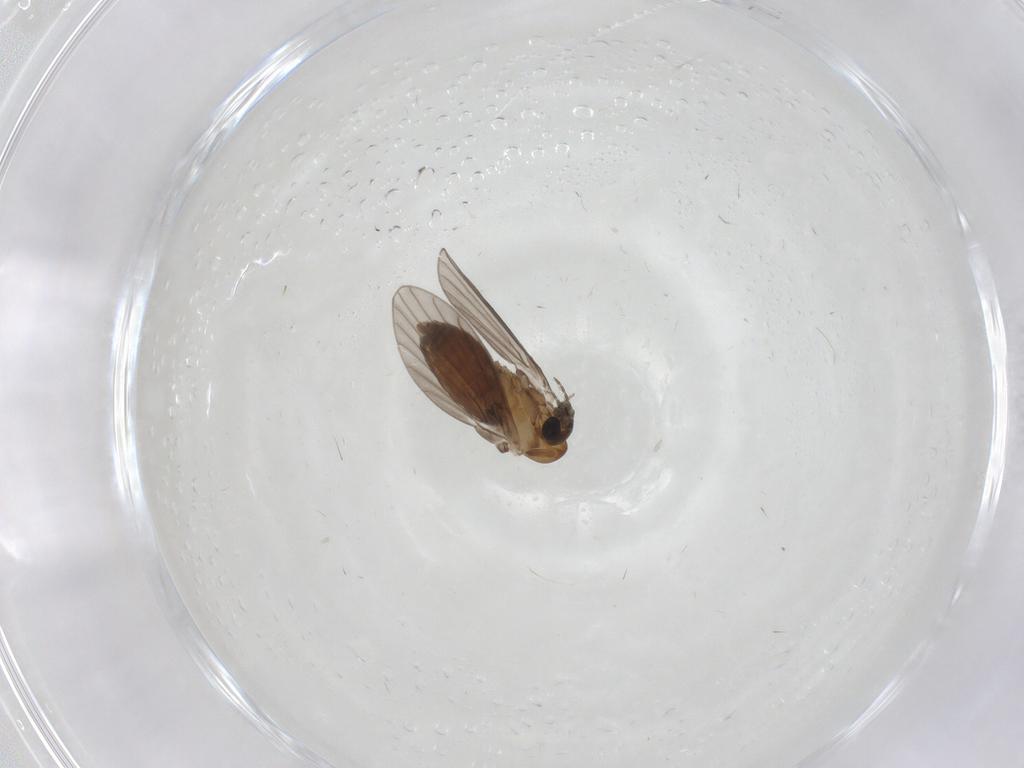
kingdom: Animalia
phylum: Arthropoda
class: Insecta
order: Diptera
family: Cecidomyiidae
